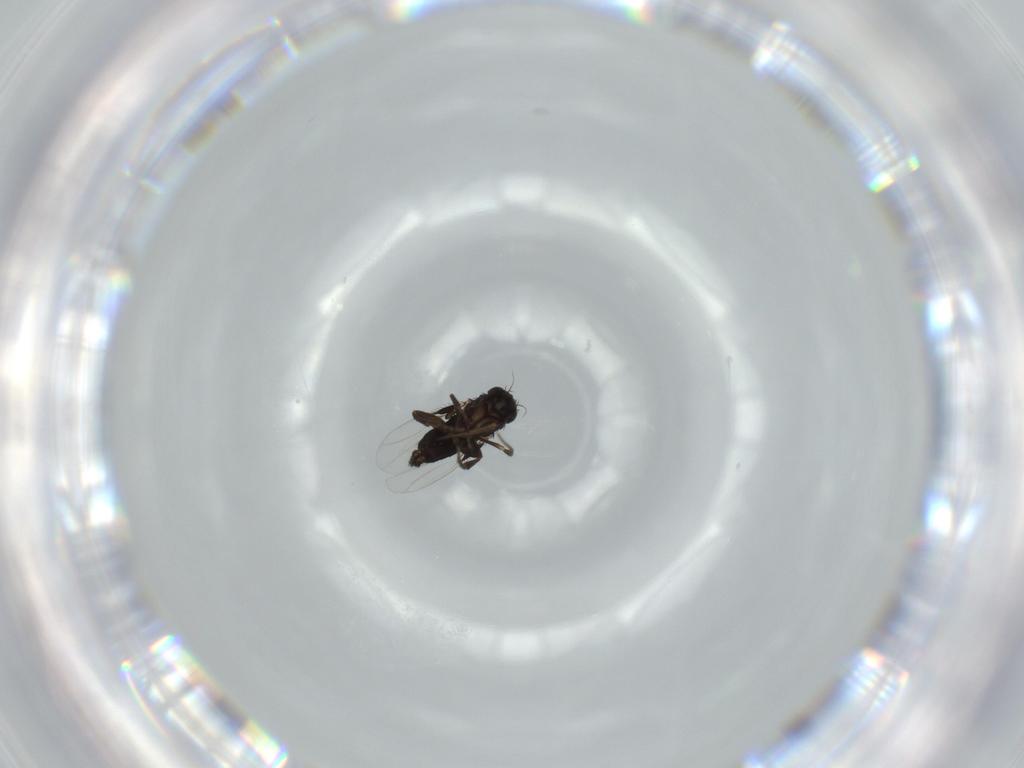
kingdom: Animalia
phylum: Arthropoda
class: Insecta
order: Diptera
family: Phoridae
